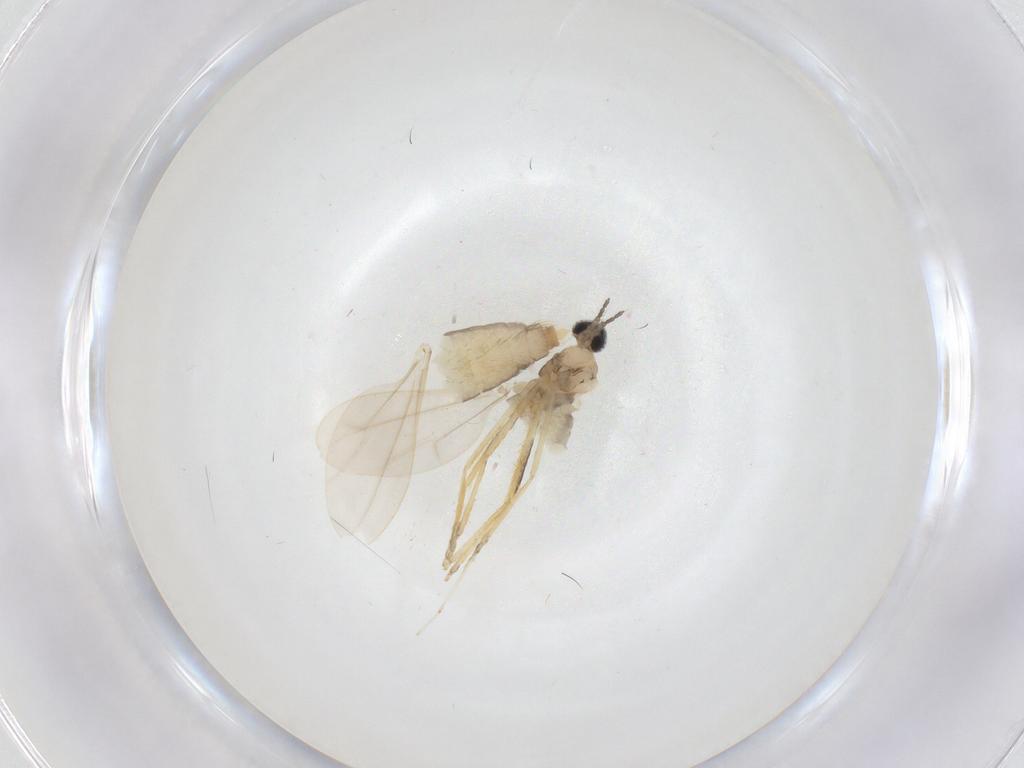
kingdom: Animalia
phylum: Arthropoda
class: Insecta
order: Diptera
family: Cecidomyiidae
